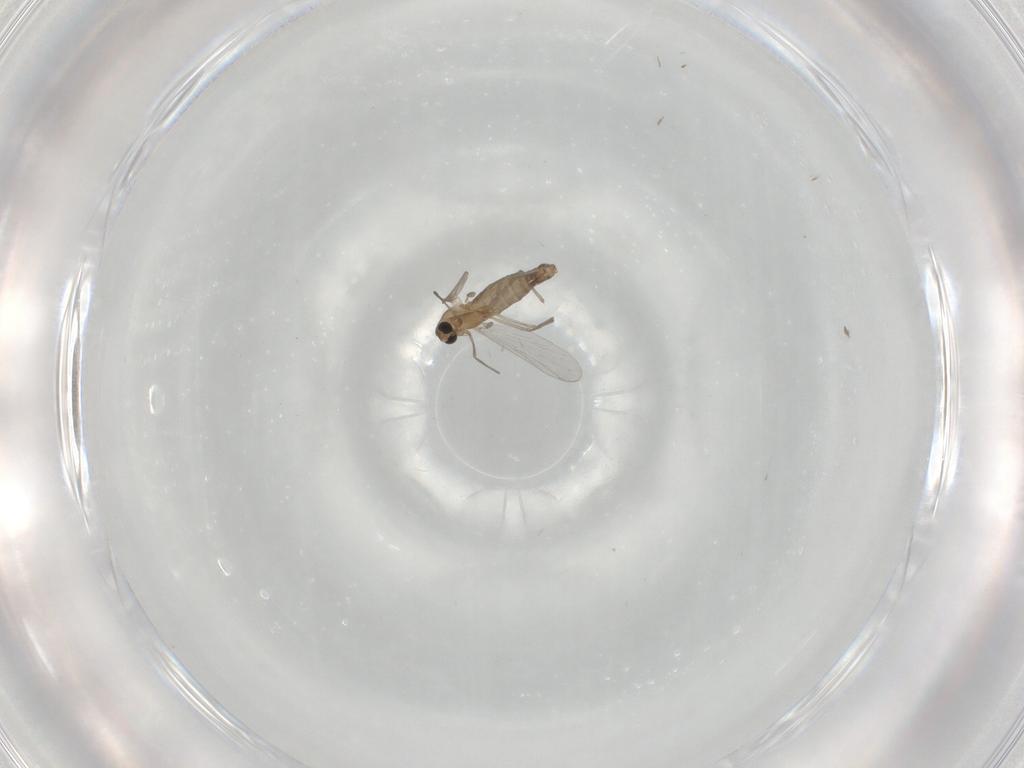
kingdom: Animalia
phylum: Arthropoda
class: Insecta
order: Diptera
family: Chironomidae
